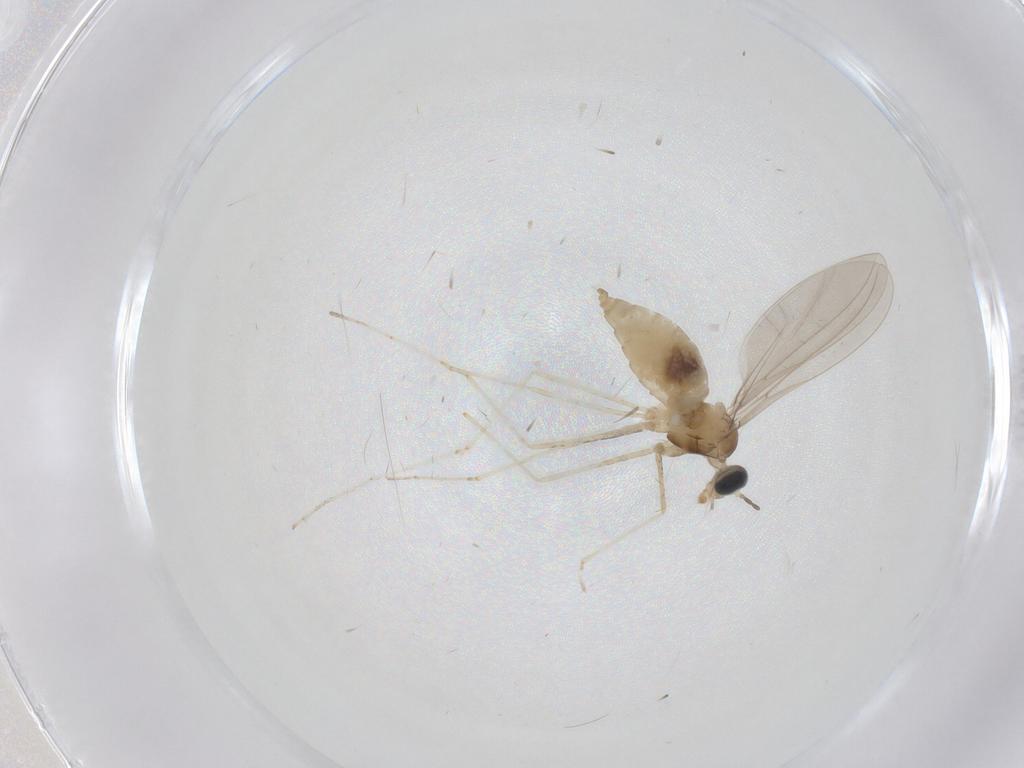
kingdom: Animalia
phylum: Arthropoda
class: Insecta
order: Diptera
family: Cecidomyiidae
